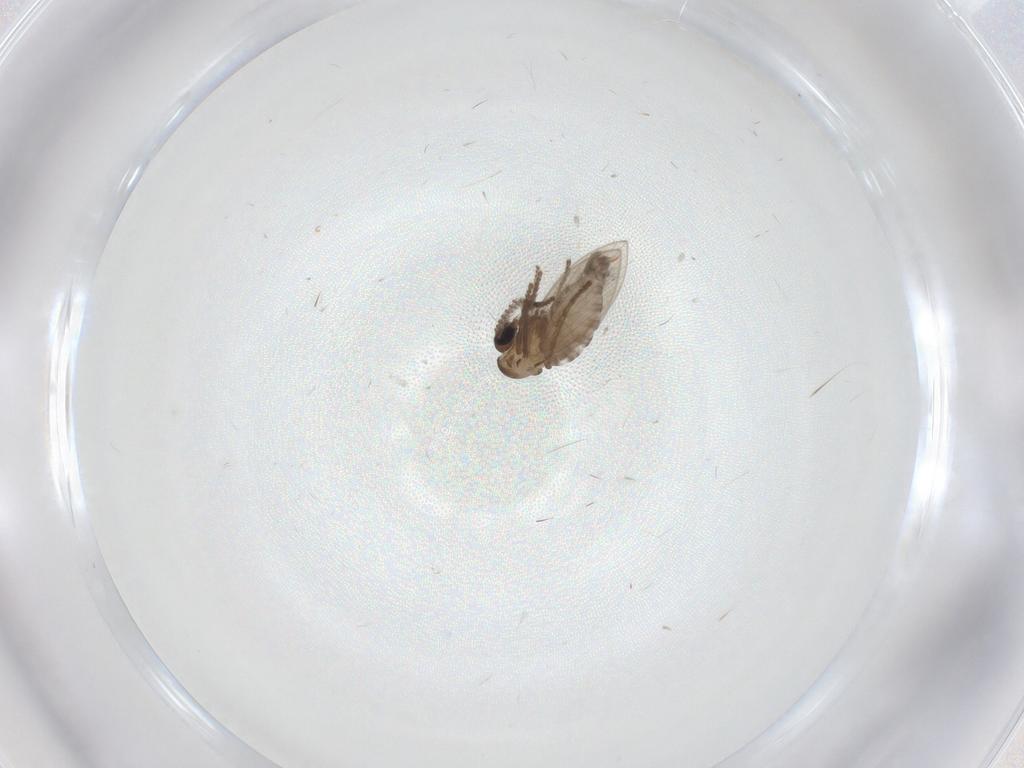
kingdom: Animalia
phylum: Arthropoda
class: Insecta
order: Diptera
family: Psychodidae
